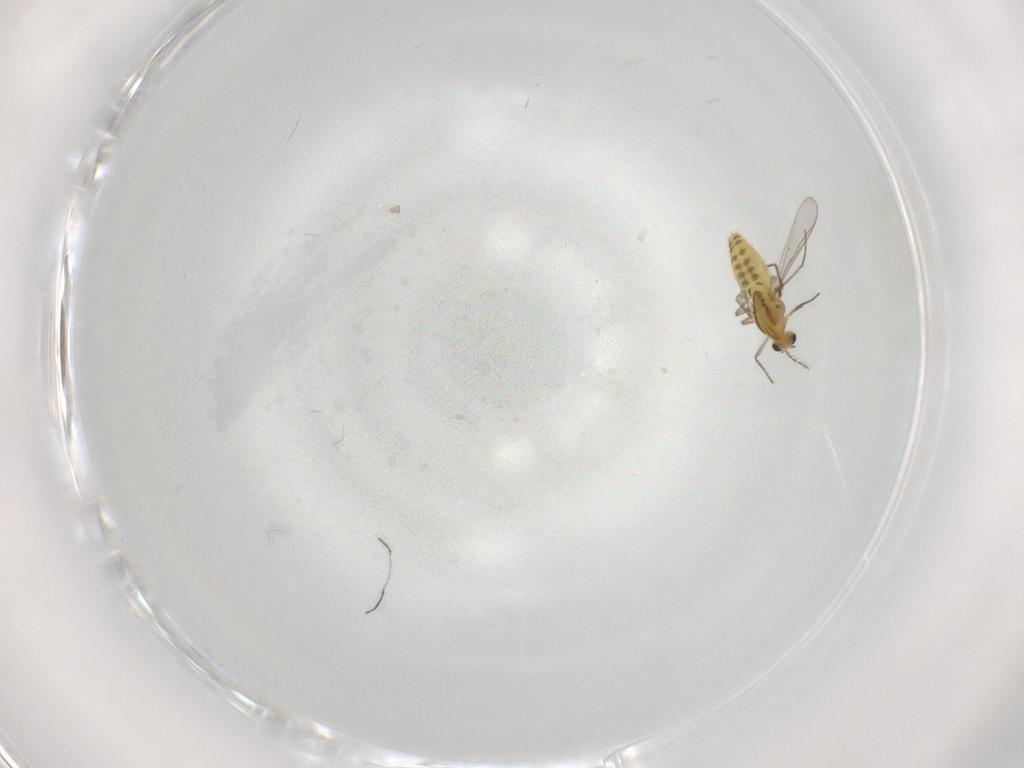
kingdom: Animalia
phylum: Arthropoda
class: Insecta
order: Diptera
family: Chironomidae
